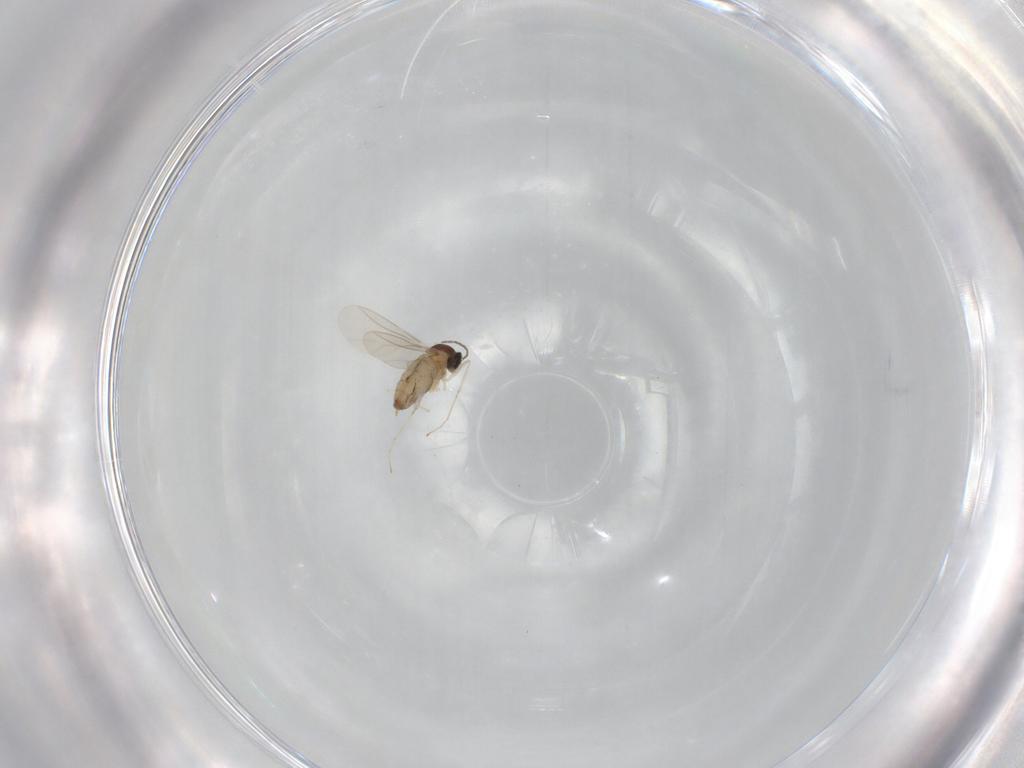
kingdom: Animalia
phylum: Arthropoda
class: Insecta
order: Diptera
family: Cecidomyiidae
